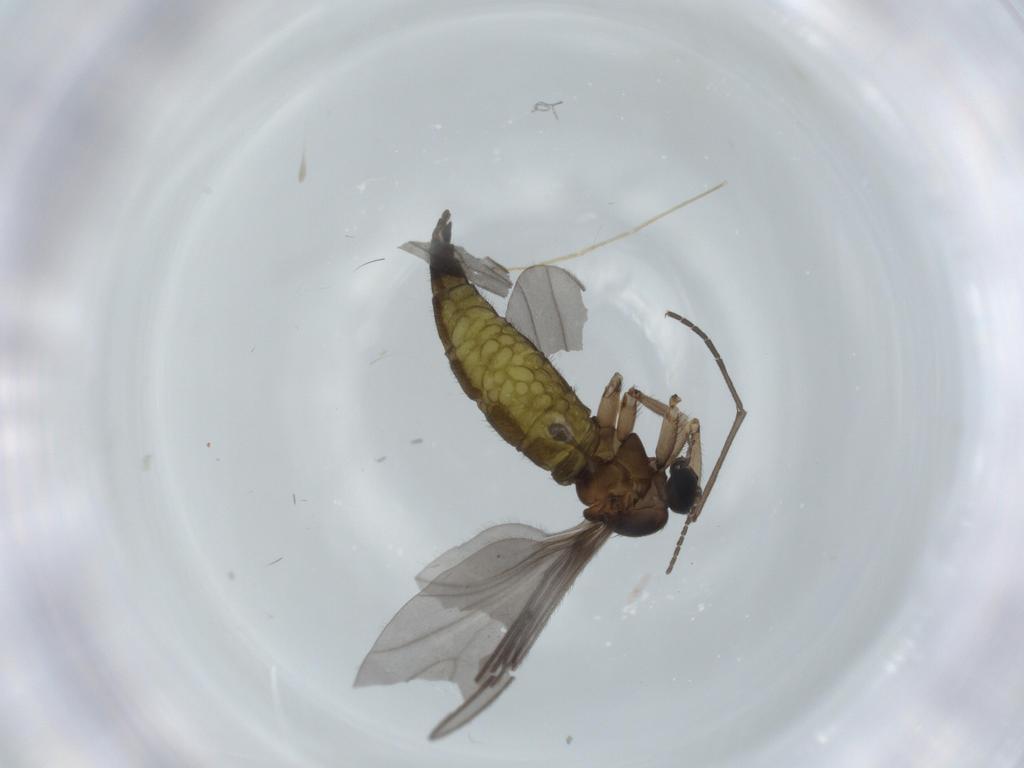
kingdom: Animalia
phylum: Arthropoda
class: Insecta
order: Diptera
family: Sciaridae
